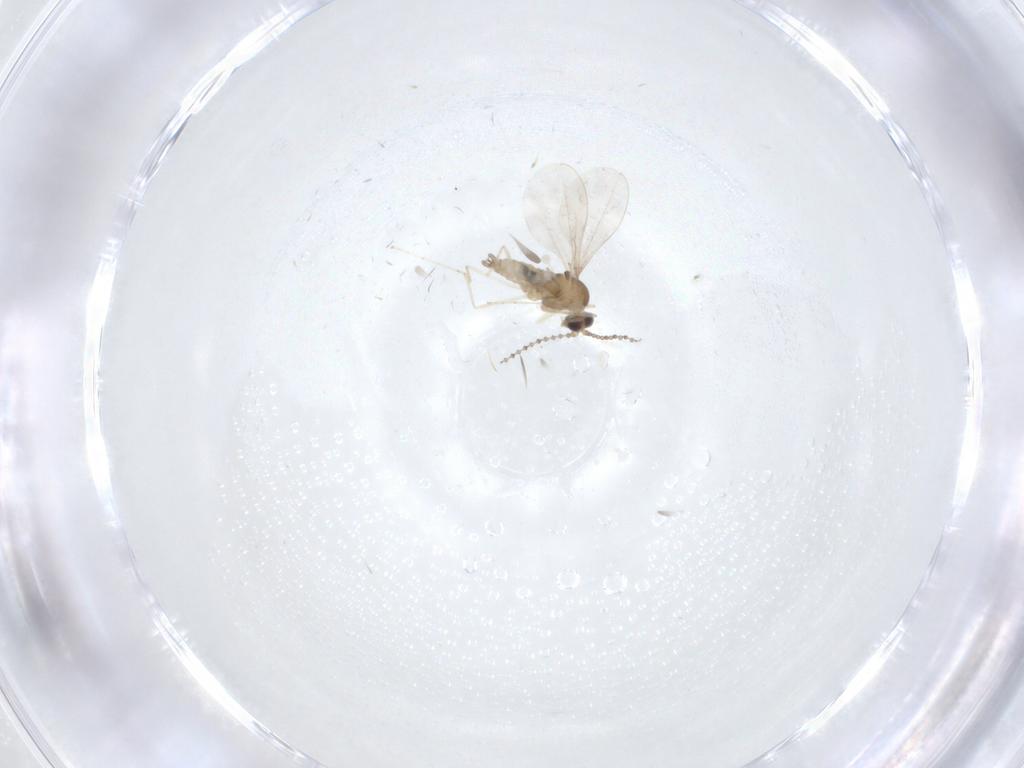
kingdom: Animalia
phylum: Arthropoda
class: Insecta
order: Diptera
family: Cecidomyiidae
